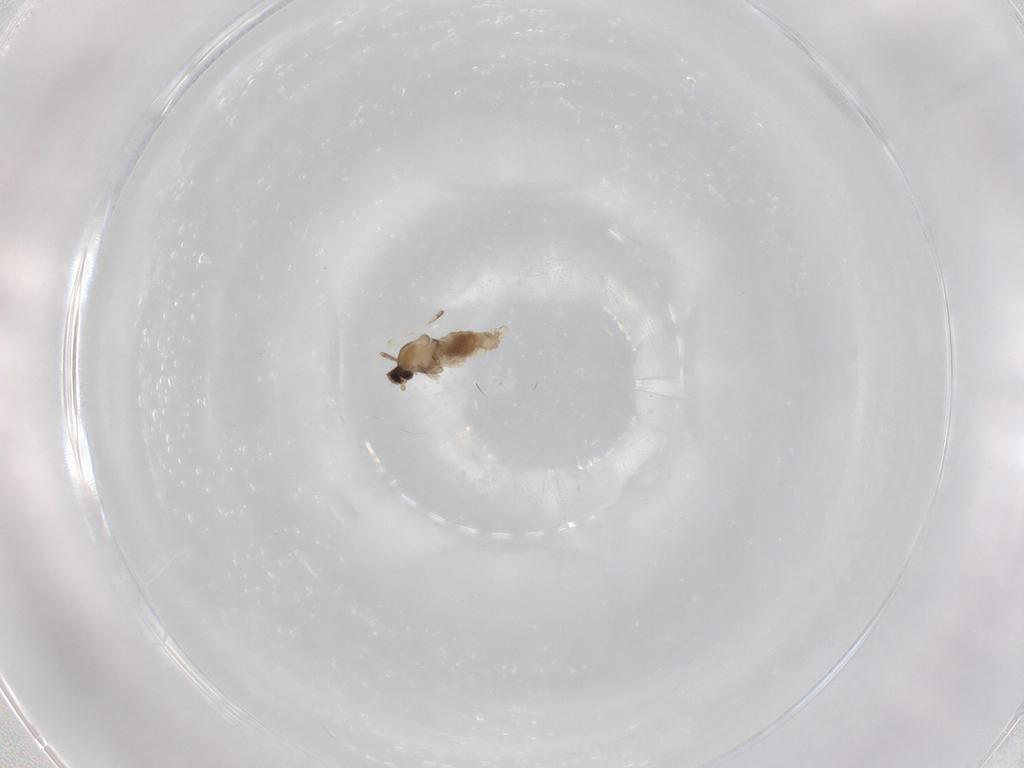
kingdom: Animalia
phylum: Arthropoda
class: Insecta
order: Diptera
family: Cecidomyiidae
